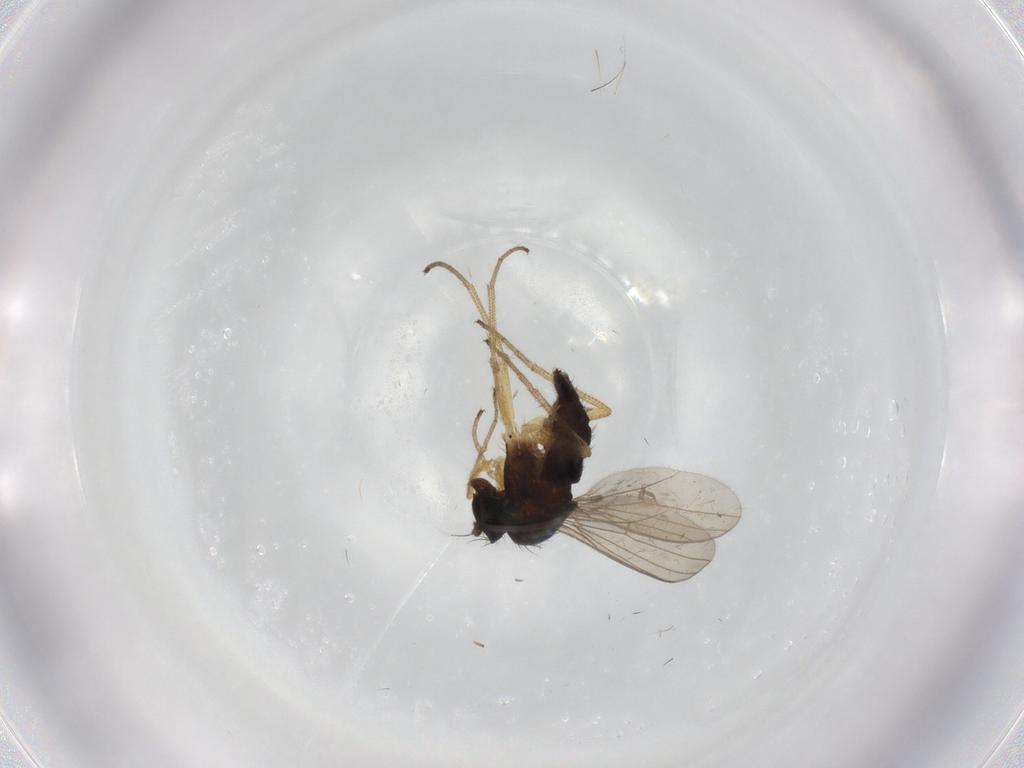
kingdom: Animalia
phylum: Arthropoda
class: Insecta
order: Diptera
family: Dolichopodidae
